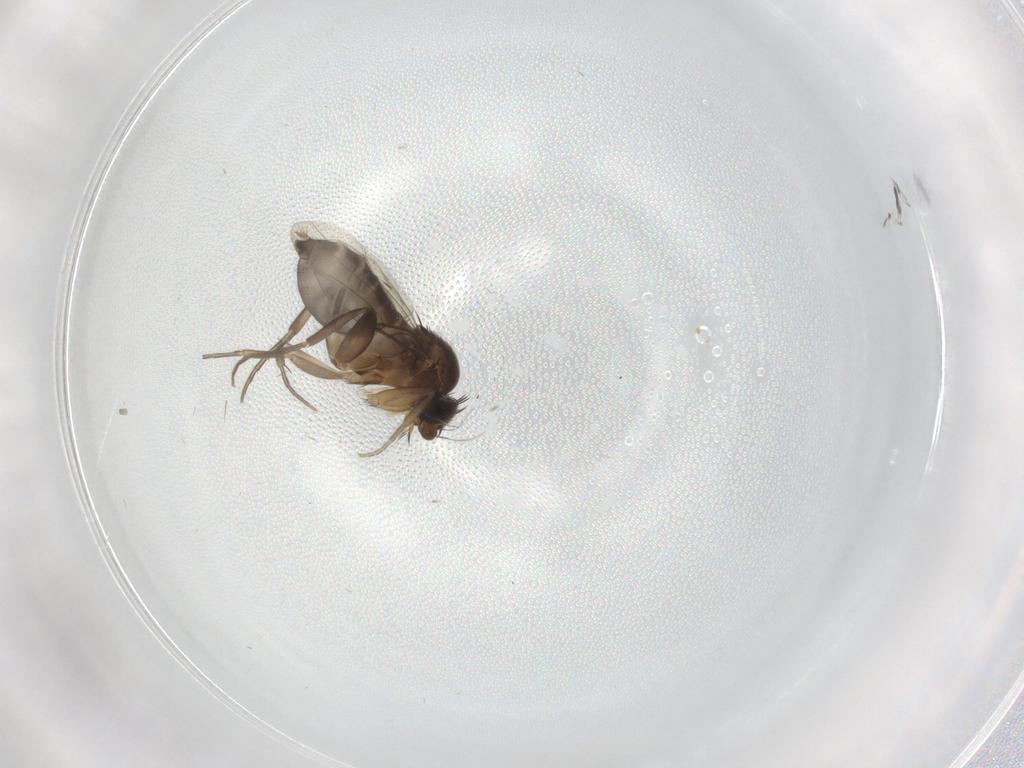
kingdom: Animalia
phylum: Arthropoda
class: Insecta
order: Diptera
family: Phoridae
